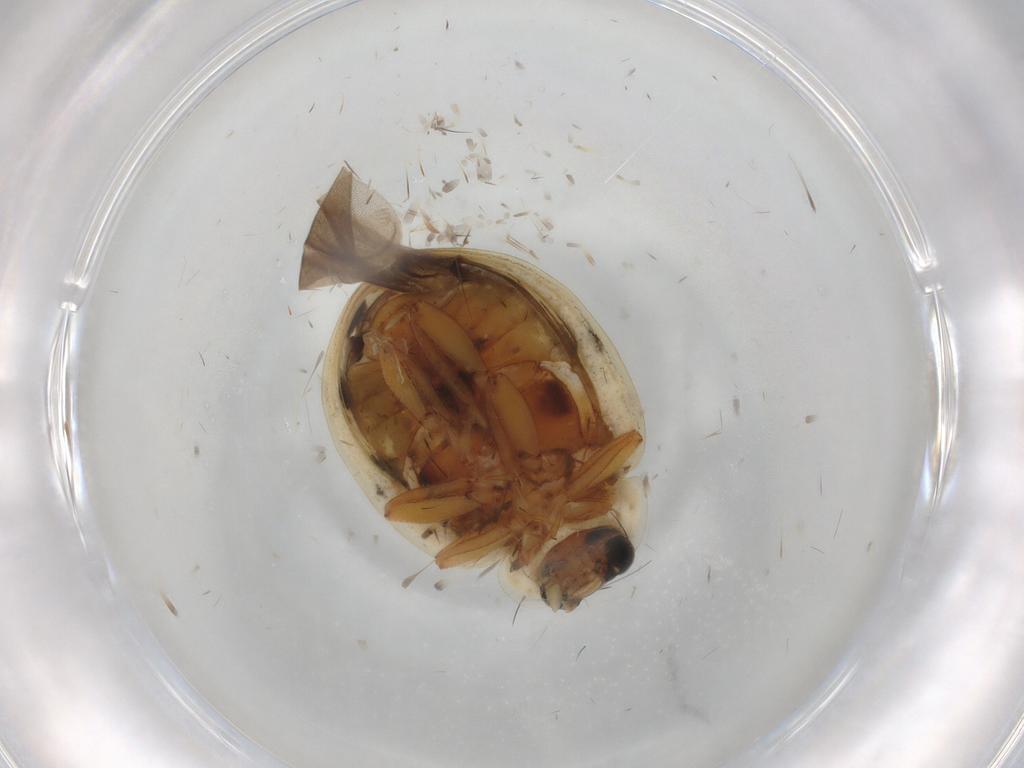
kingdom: Animalia
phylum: Arthropoda
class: Insecta
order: Coleoptera
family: Coccinellidae
